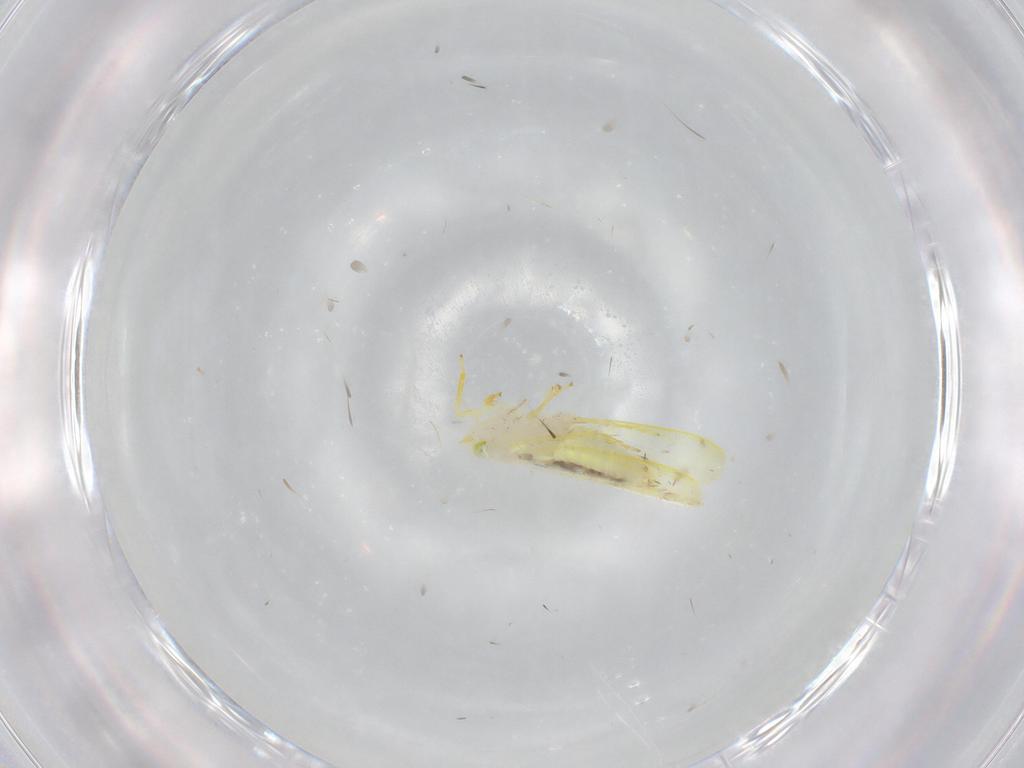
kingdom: Animalia
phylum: Arthropoda
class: Insecta
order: Hemiptera
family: Cicadellidae
